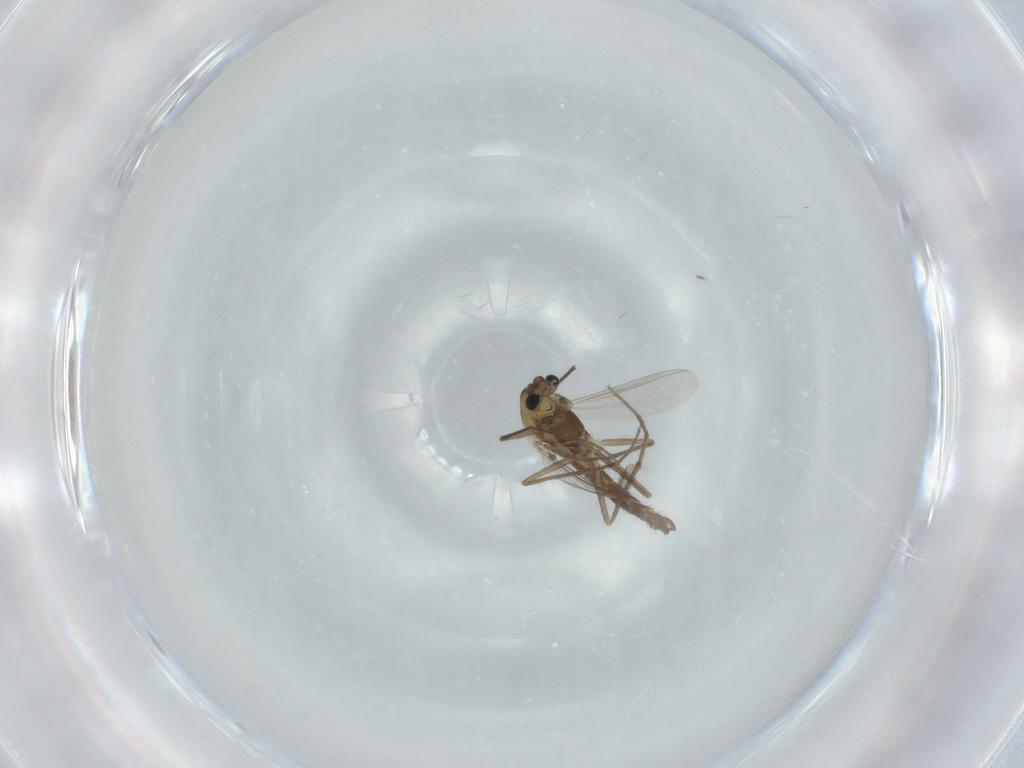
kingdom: Animalia
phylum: Arthropoda
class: Insecta
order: Diptera
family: Chironomidae
